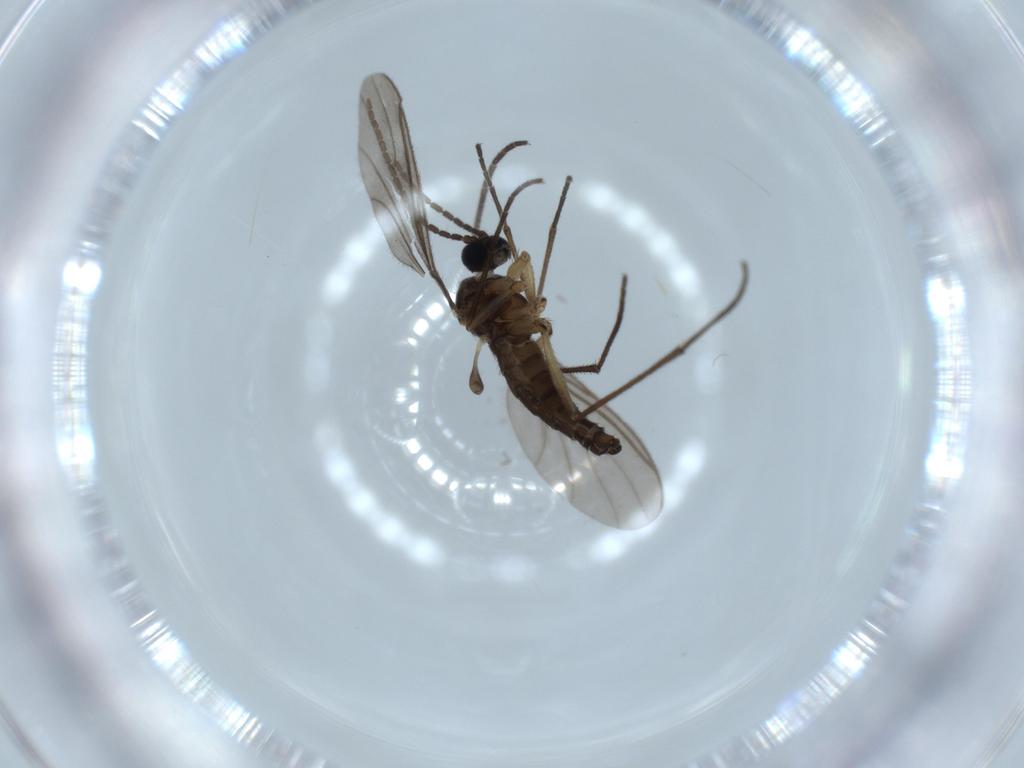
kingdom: Animalia
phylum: Arthropoda
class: Insecta
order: Diptera
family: Sciaridae
